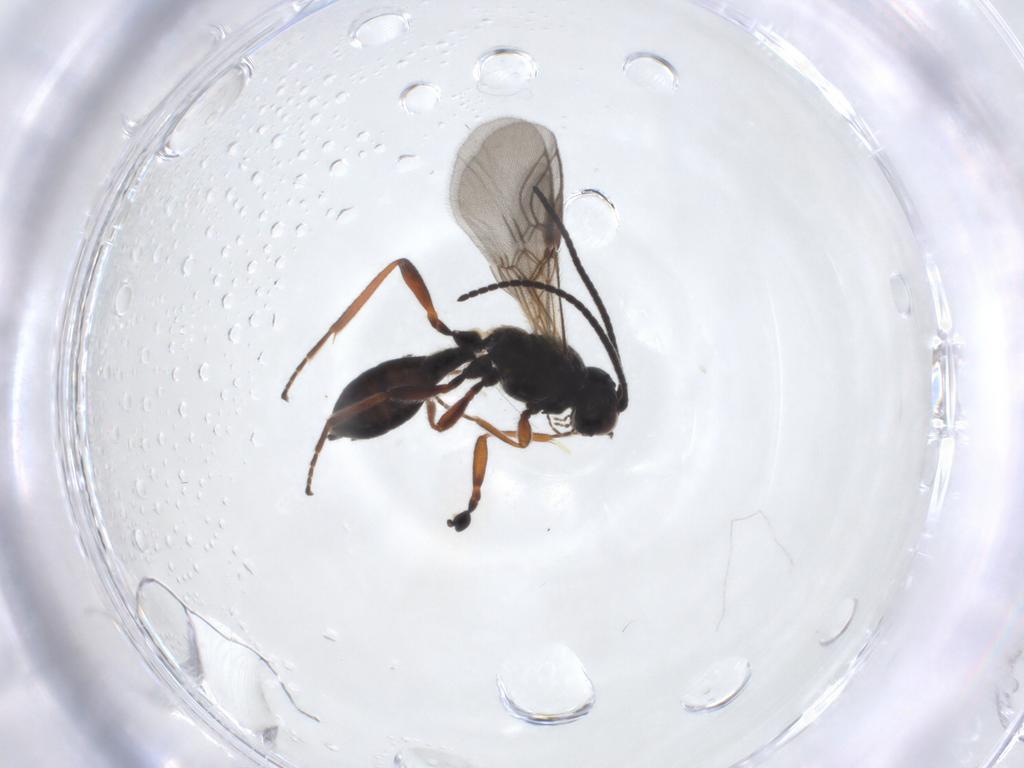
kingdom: Animalia
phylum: Arthropoda
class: Insecta
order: Hymenoptera
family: Braconidae
